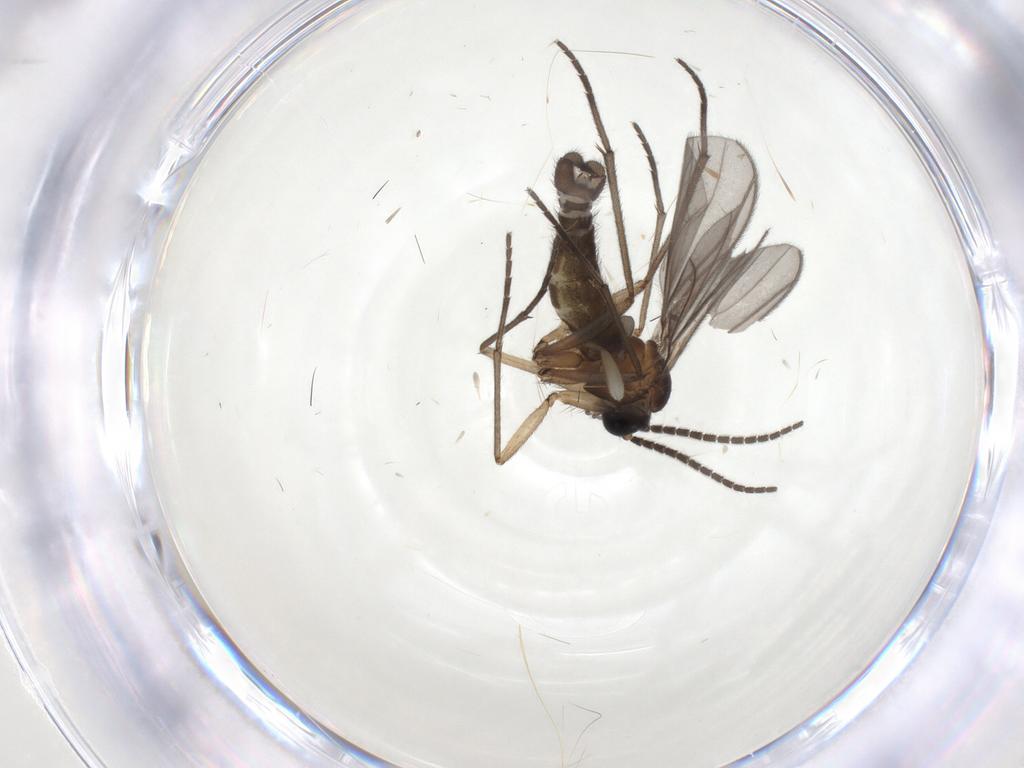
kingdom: Animalia
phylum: Arthropoda
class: Insecta
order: Diptera
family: Sciaridae
